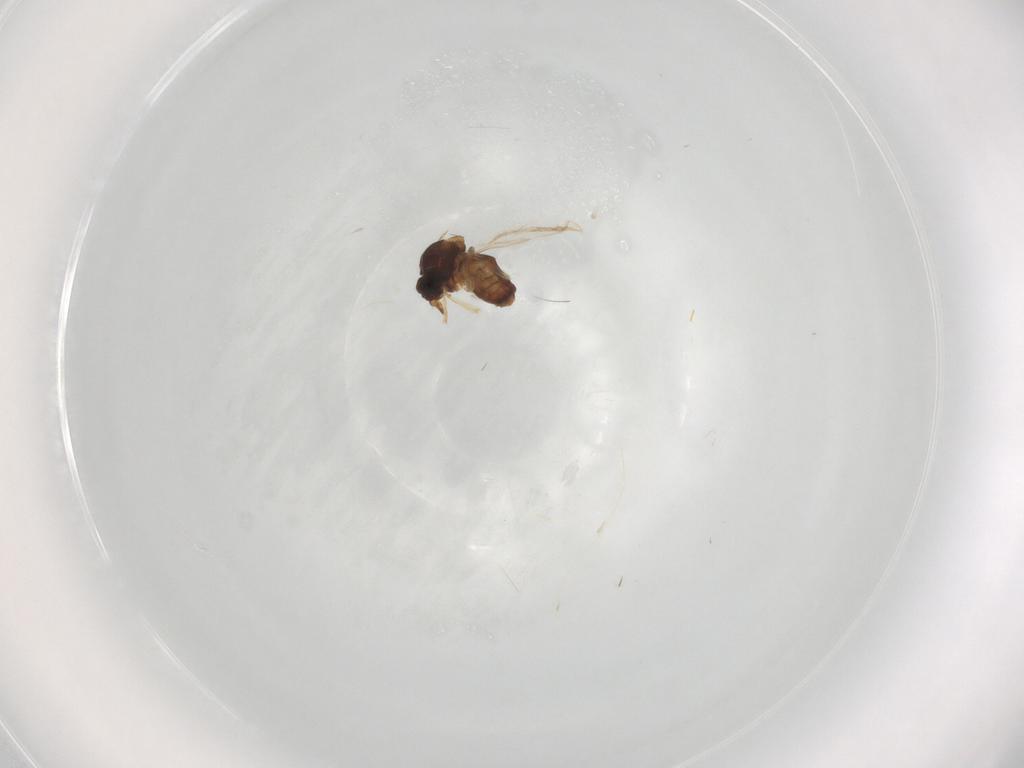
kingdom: Animalia
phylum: Arthropoda
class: Insecta
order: Diptera
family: Ceratopogonidae
